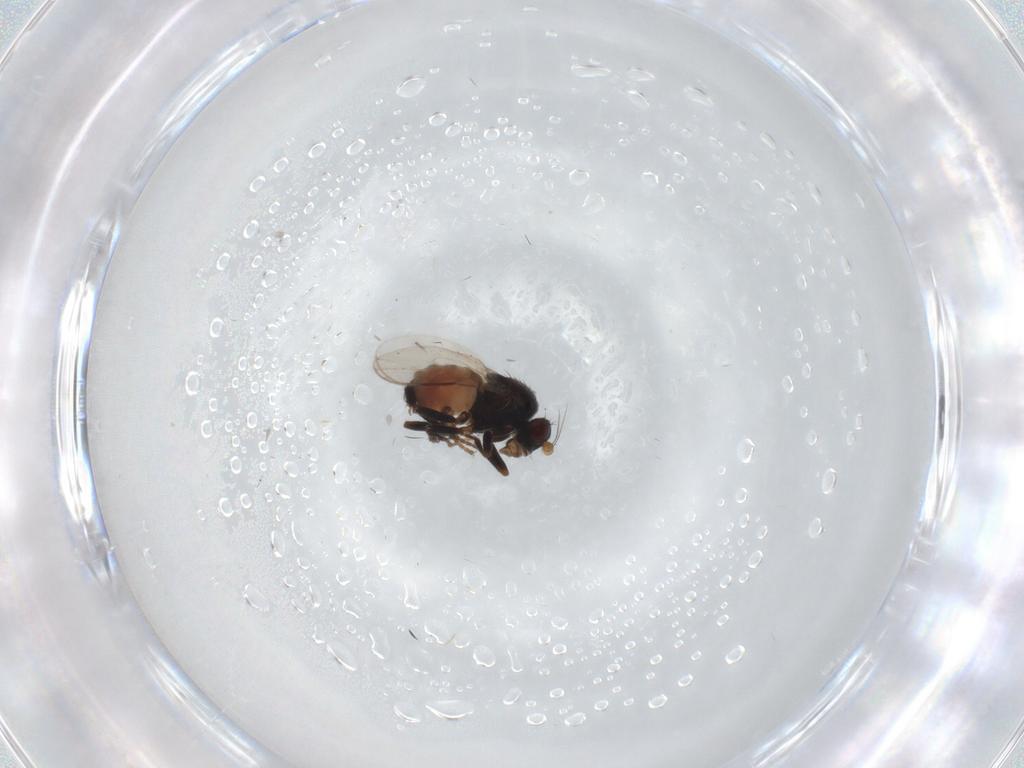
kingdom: Animalia
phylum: Arthropoda
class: Insecta
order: Diptera
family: Sphaeroceridae
